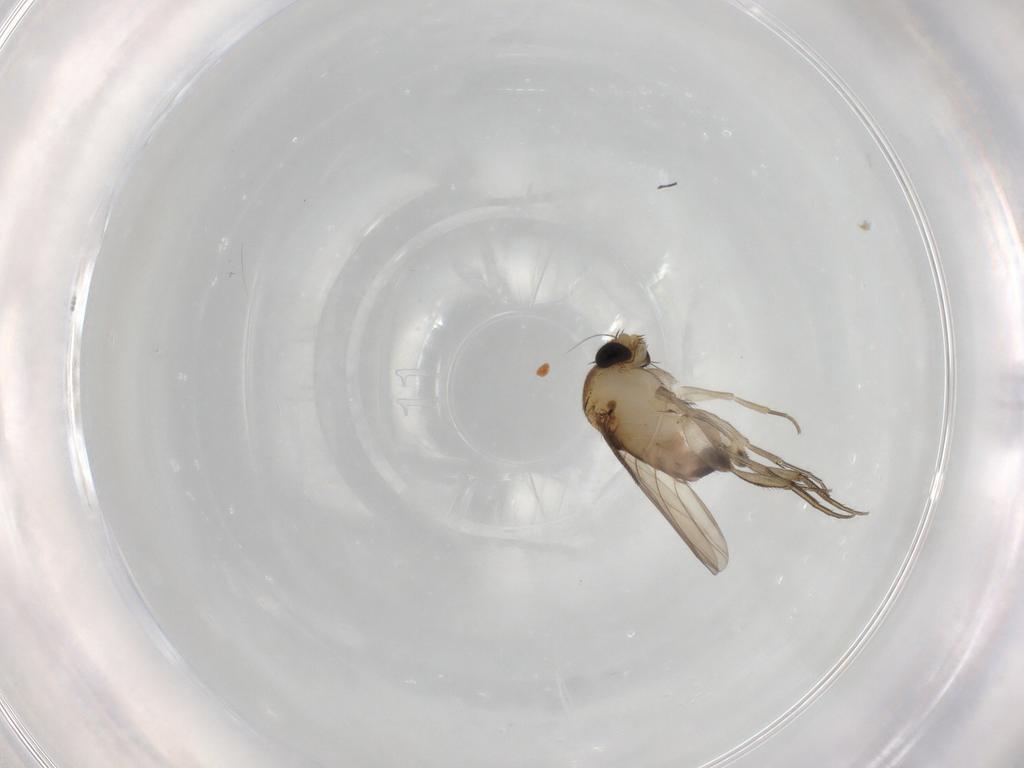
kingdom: Animalia
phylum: Arthropoda
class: Insecta
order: Diptera
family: Phoridae
